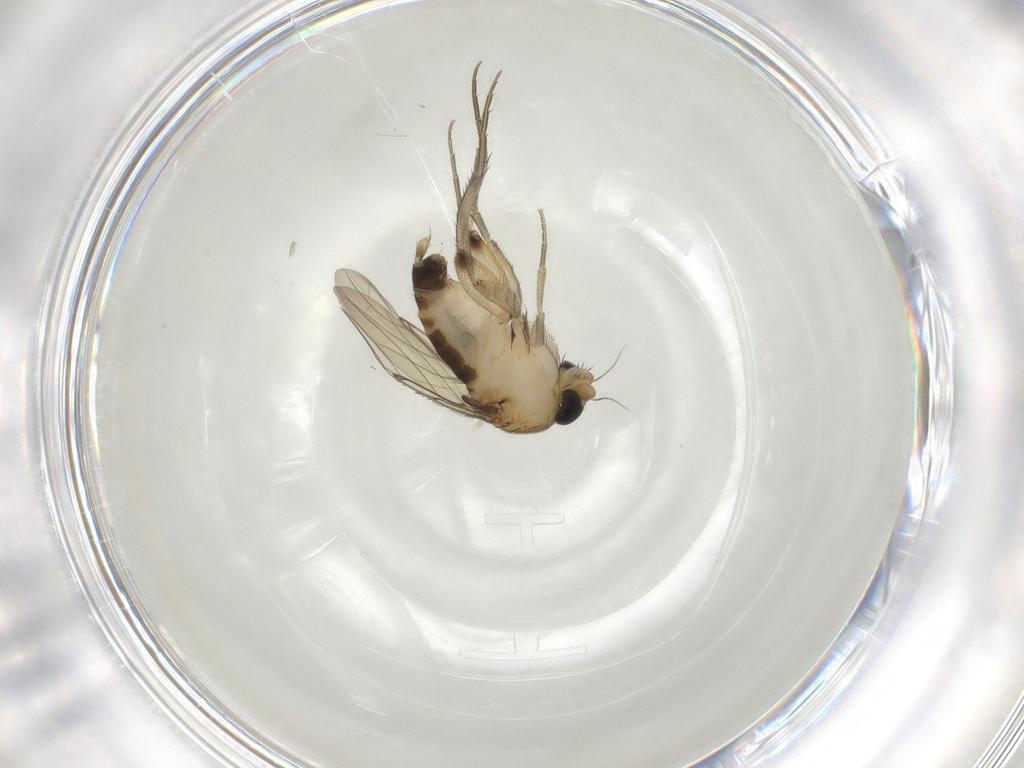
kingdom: Animalia
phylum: Arthropoda
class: Insecta
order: Diptera
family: Phoridae
